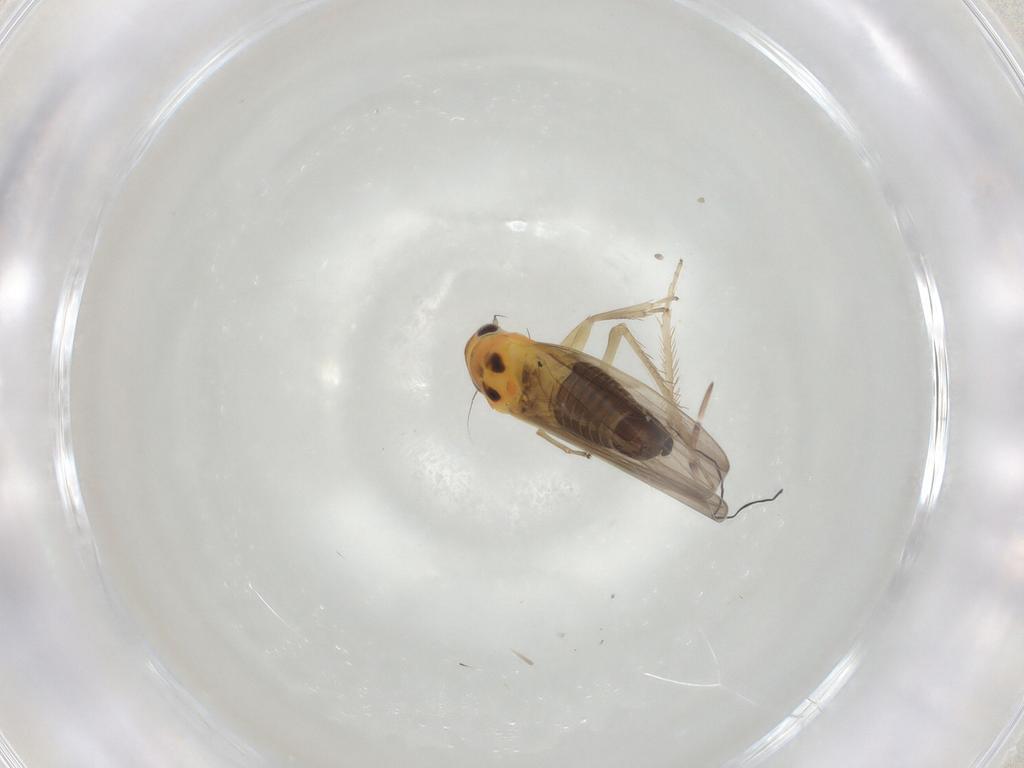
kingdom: Animalia
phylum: Arthropoda
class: Insecta
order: Hemiptera
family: Cicadellidae
